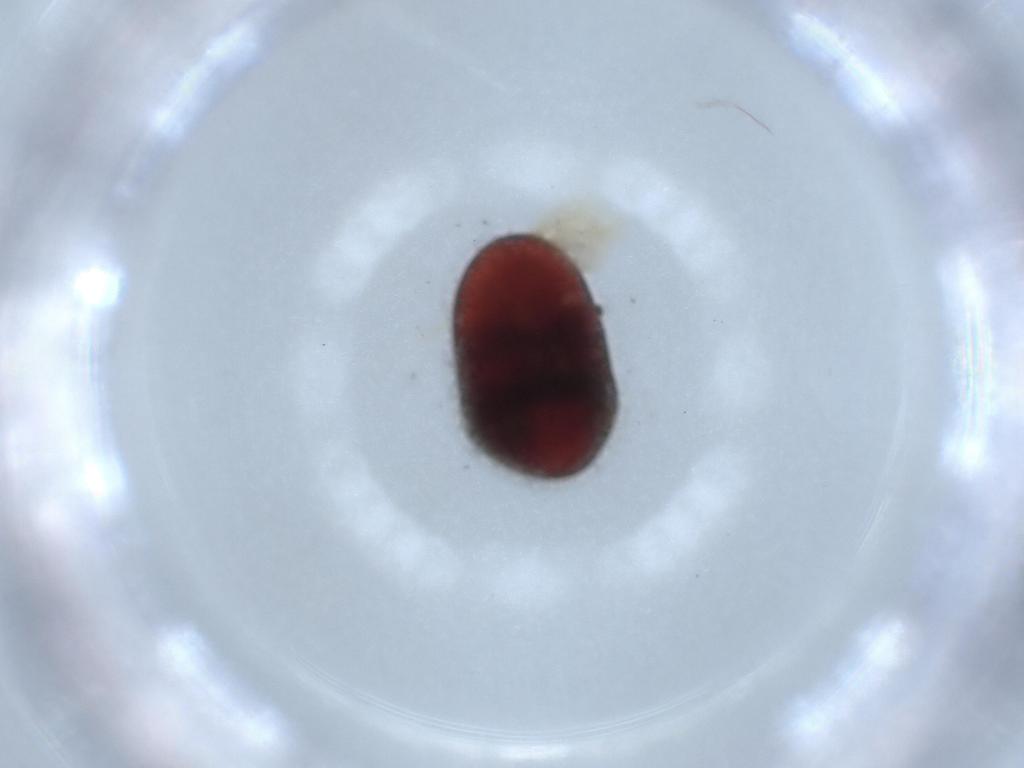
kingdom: Animalia
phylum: Arthropoda
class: Insecta
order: Coleoptera
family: Cantharidae
